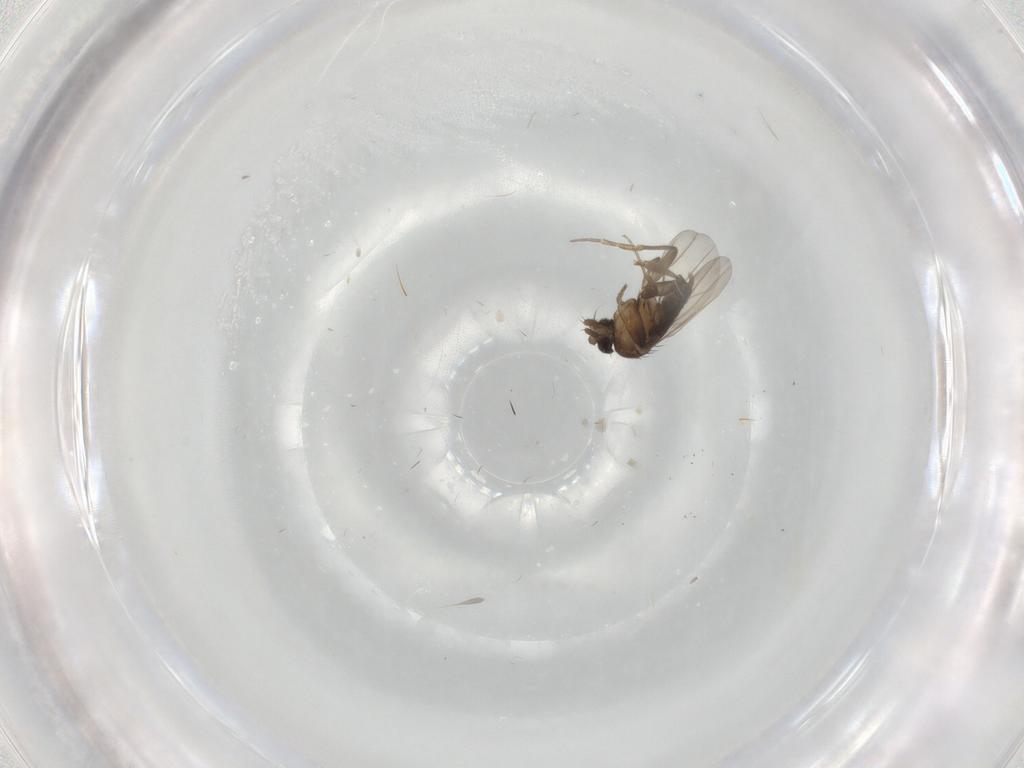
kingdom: Animalia
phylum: Arthropoda
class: Insecta
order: Diptera
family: Phoridae
